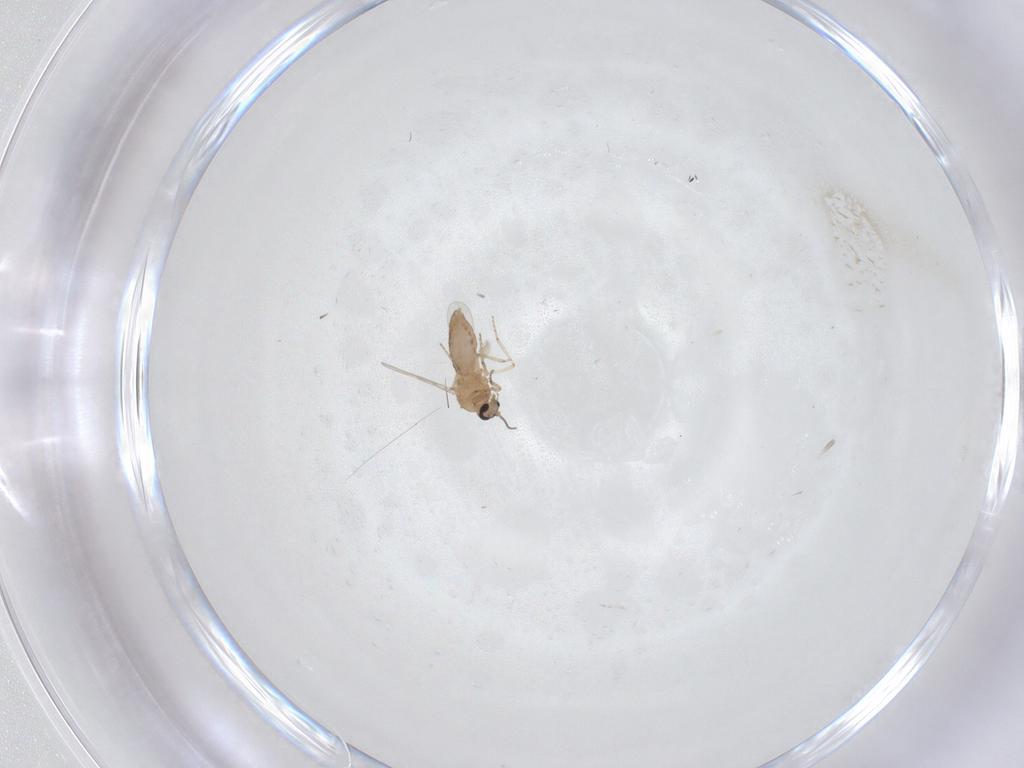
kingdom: Animalia
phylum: Arthropoda
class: Insecta
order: Diptera
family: Ceratopogonidae
